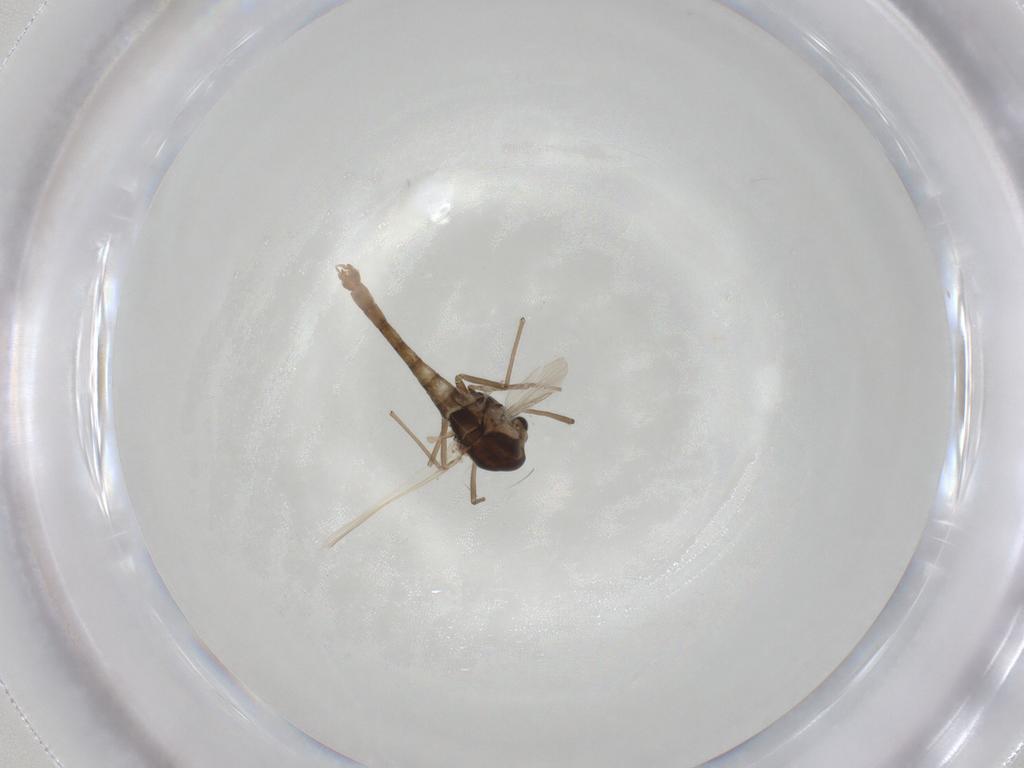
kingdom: Animalia
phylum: Arthropoda
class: Insecta
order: Diptera
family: Chironomidae
